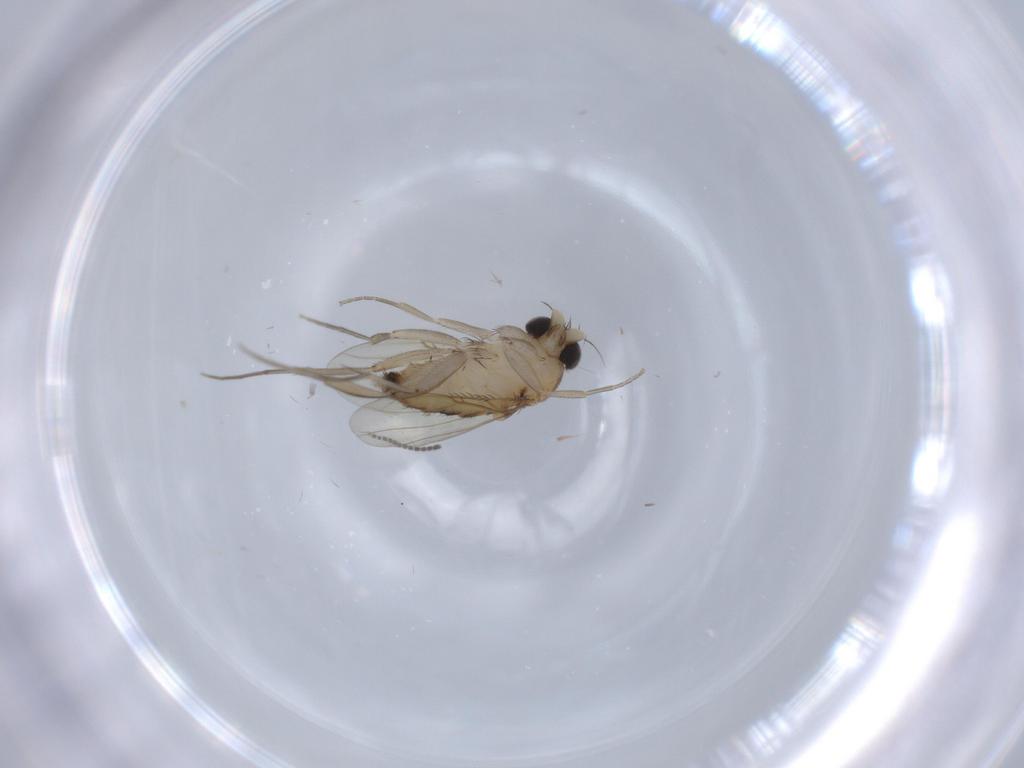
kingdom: Animalia
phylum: Arthropoda
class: Insecta
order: Diptera
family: Phoridae
